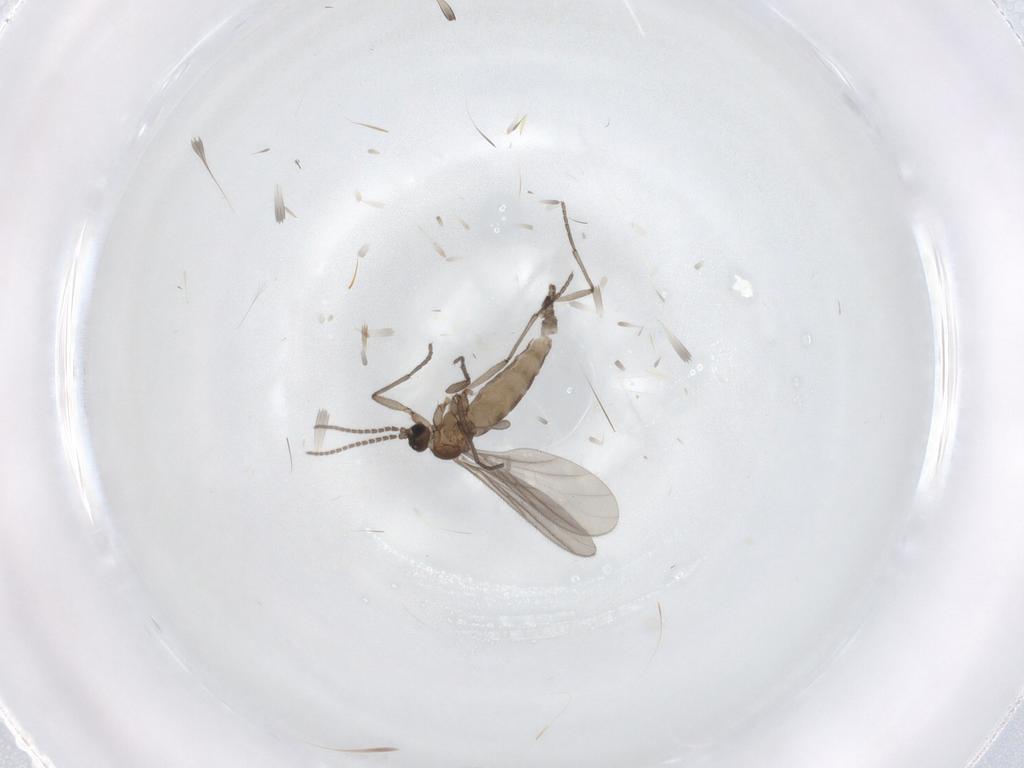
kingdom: Animalia
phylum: Arthropoda
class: Insecta
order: Diptera
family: Sciaridae
